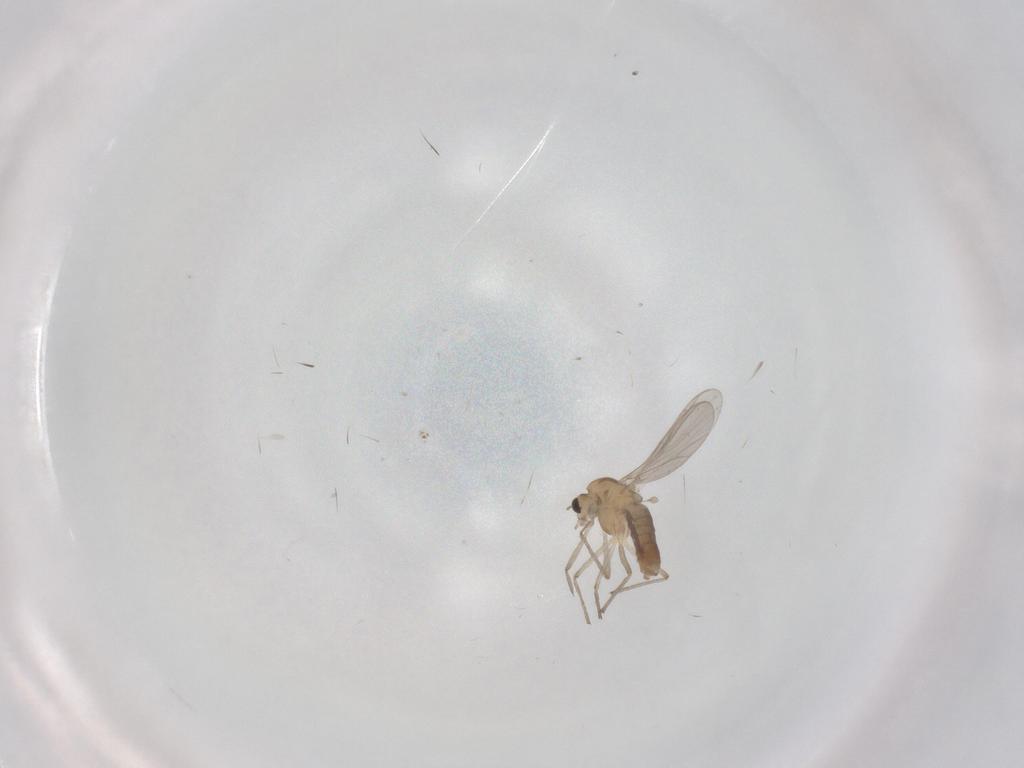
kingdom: Animalia
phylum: Arthropoda
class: Insecta
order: Diptera
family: Chironomidae
